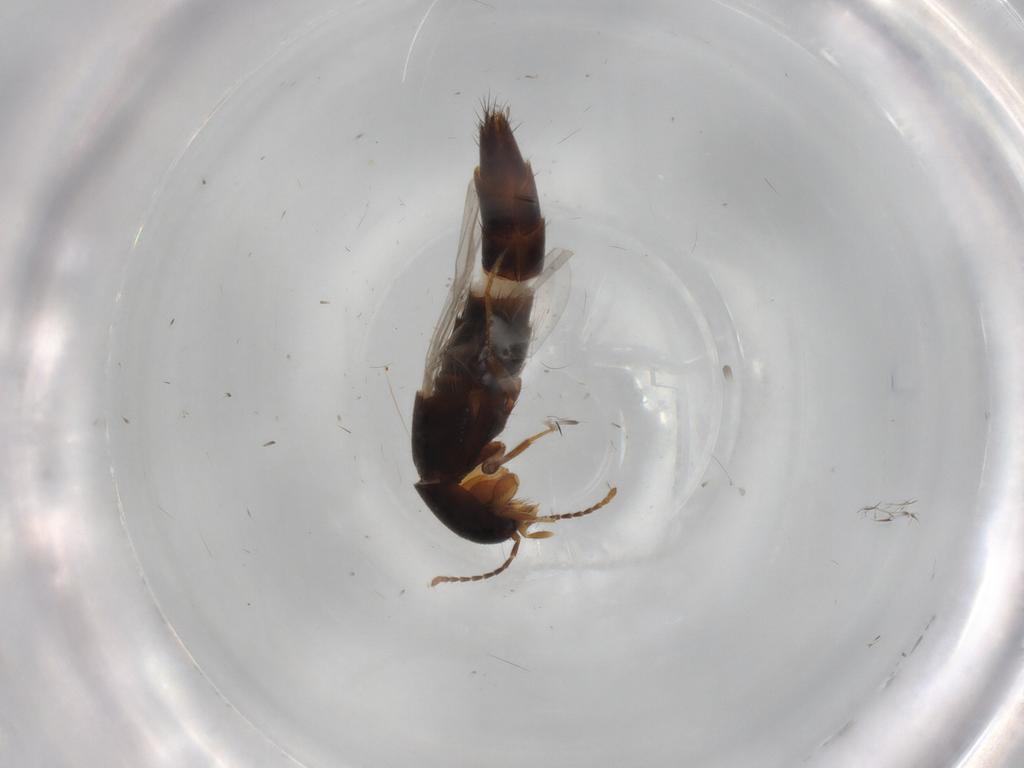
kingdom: Animalia
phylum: Arthropoda
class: Insecta
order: Coleoptera
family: Staphylinidae
